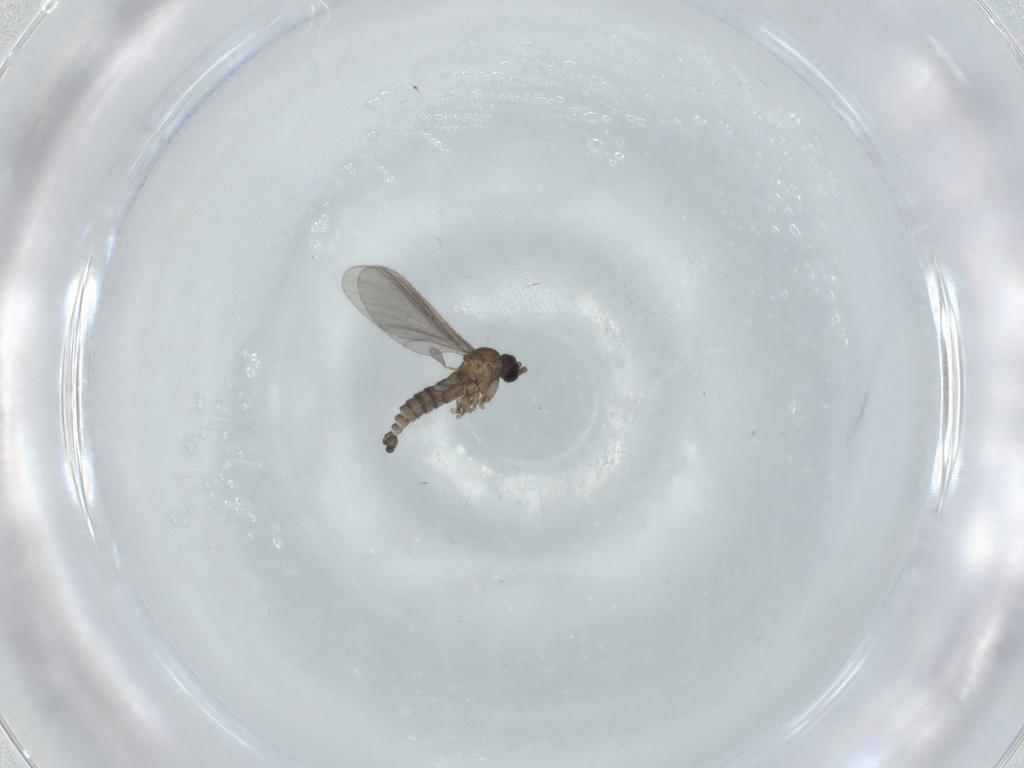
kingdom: Animalia
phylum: Arthropoda
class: Insecta
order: Diptera
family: Sciaridae
